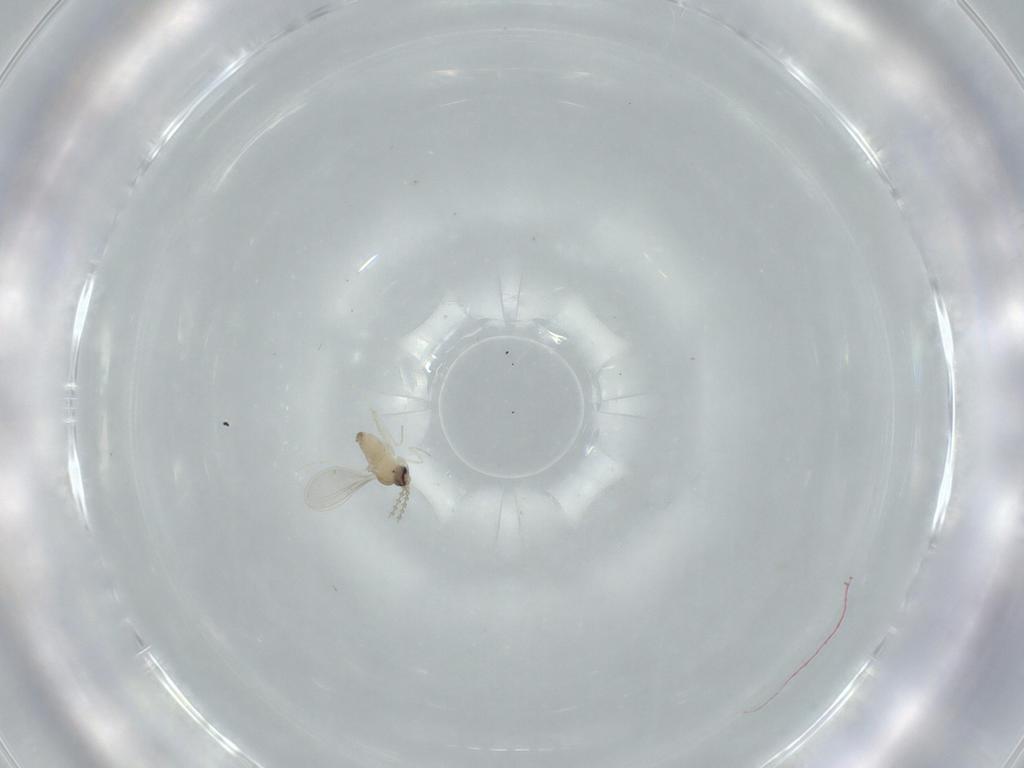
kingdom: Animalia
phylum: Arthropoda
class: Insecta
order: Diptera
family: Cecidomyiidae
